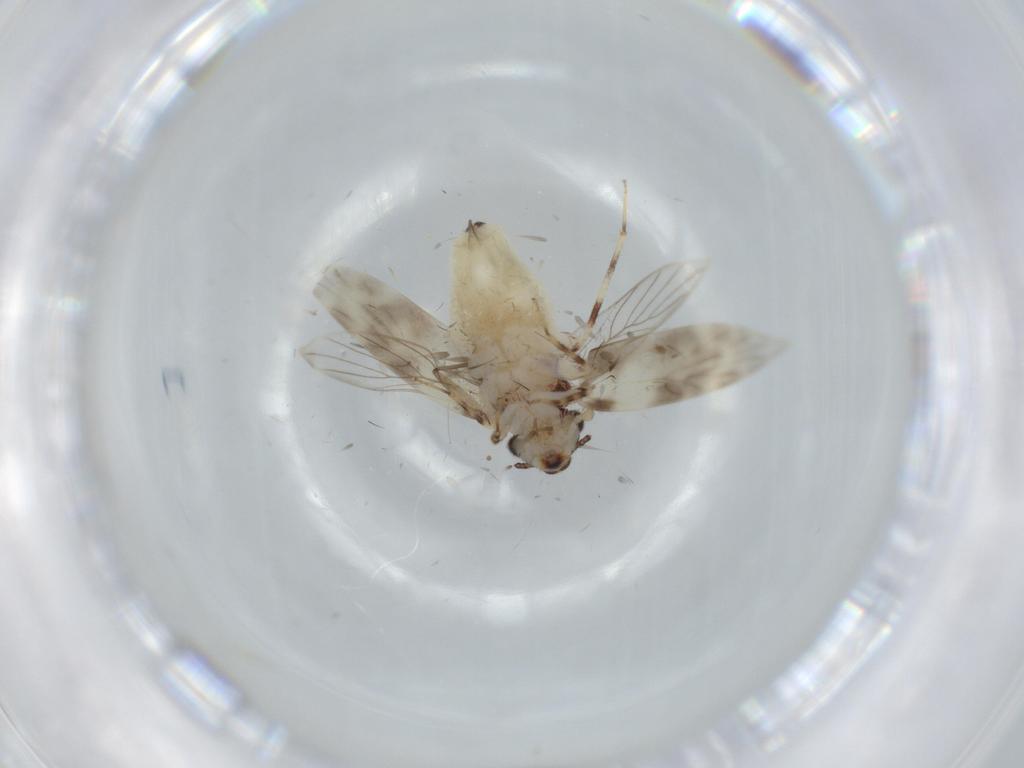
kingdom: Animalia
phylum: Arthropoda
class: Insecta
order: Psocodea
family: Lepidopsocidae
